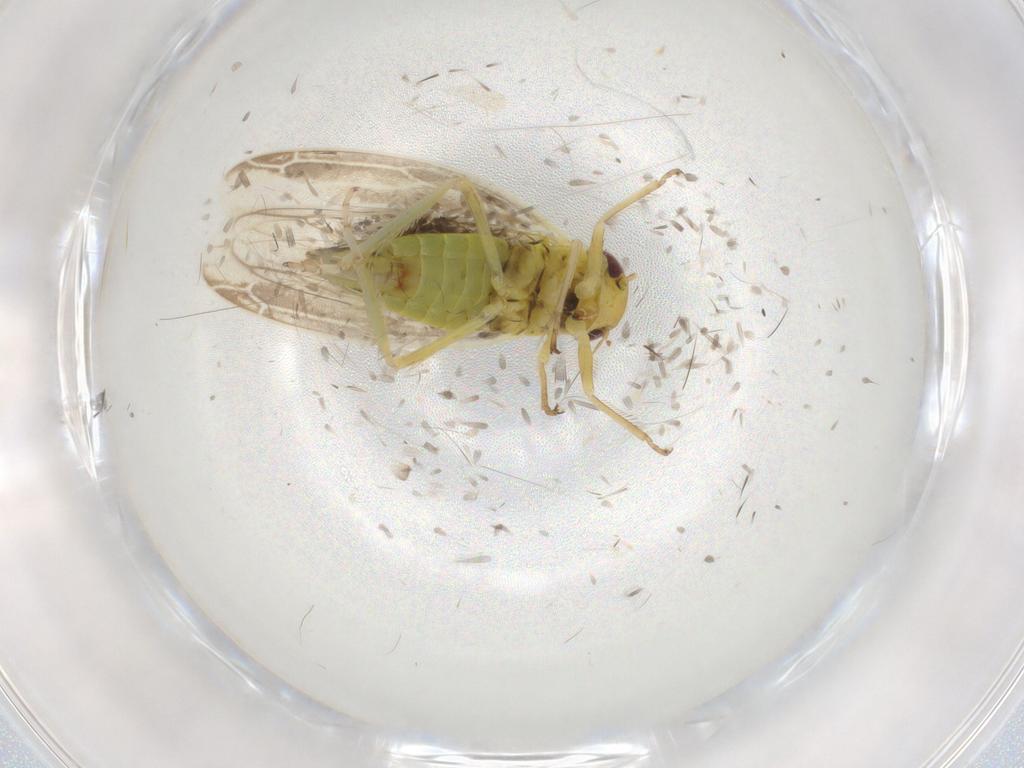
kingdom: Animalia
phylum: Arthropoda
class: Insecta
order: Hemiptera
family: Cicadellidae
